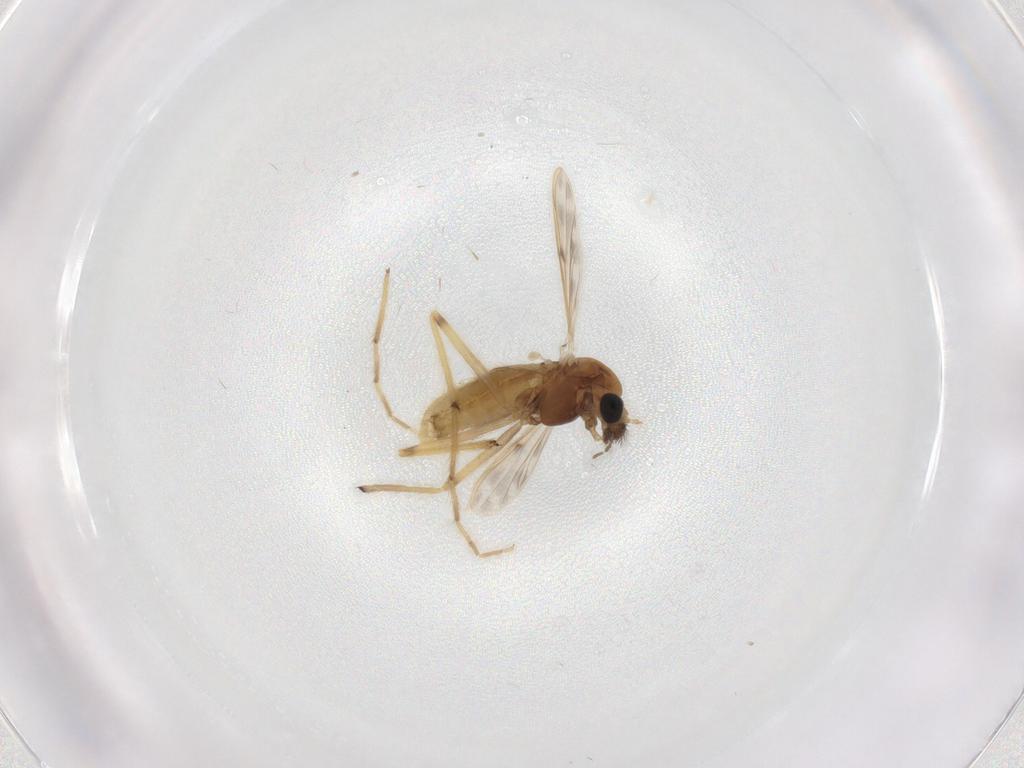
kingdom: Animalia
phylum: Arthropoda
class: Insecta
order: Diptera
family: Chironomidae
